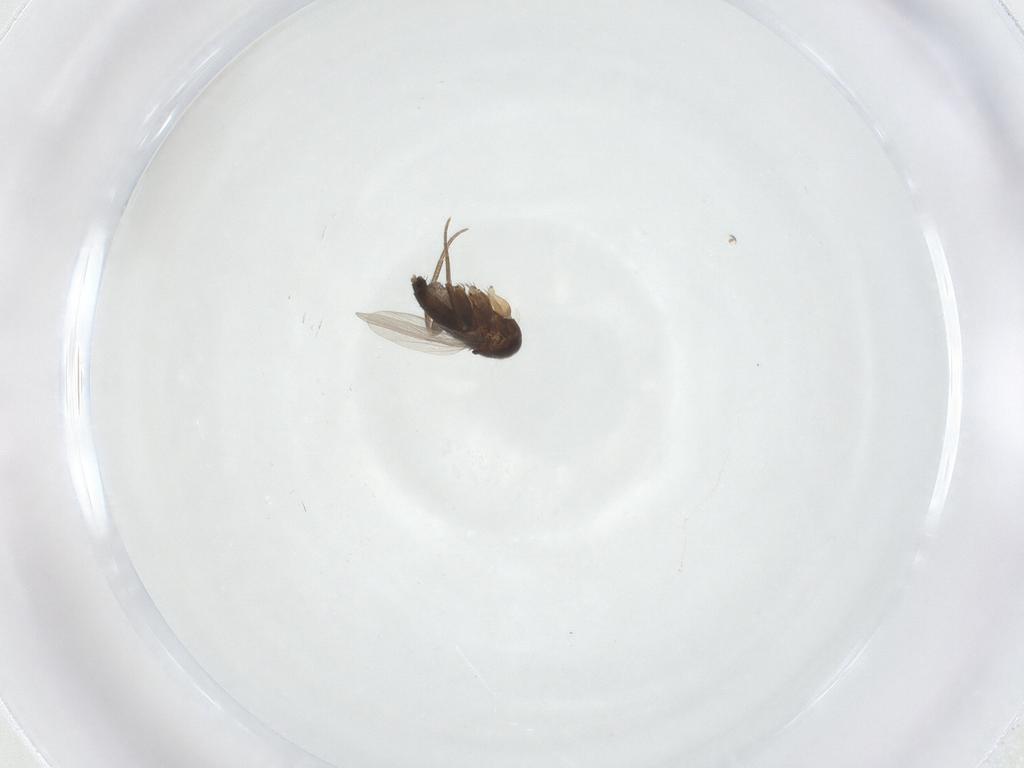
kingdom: Animalia
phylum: Arthropoda
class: Insecta
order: Diptera
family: Phoridae
